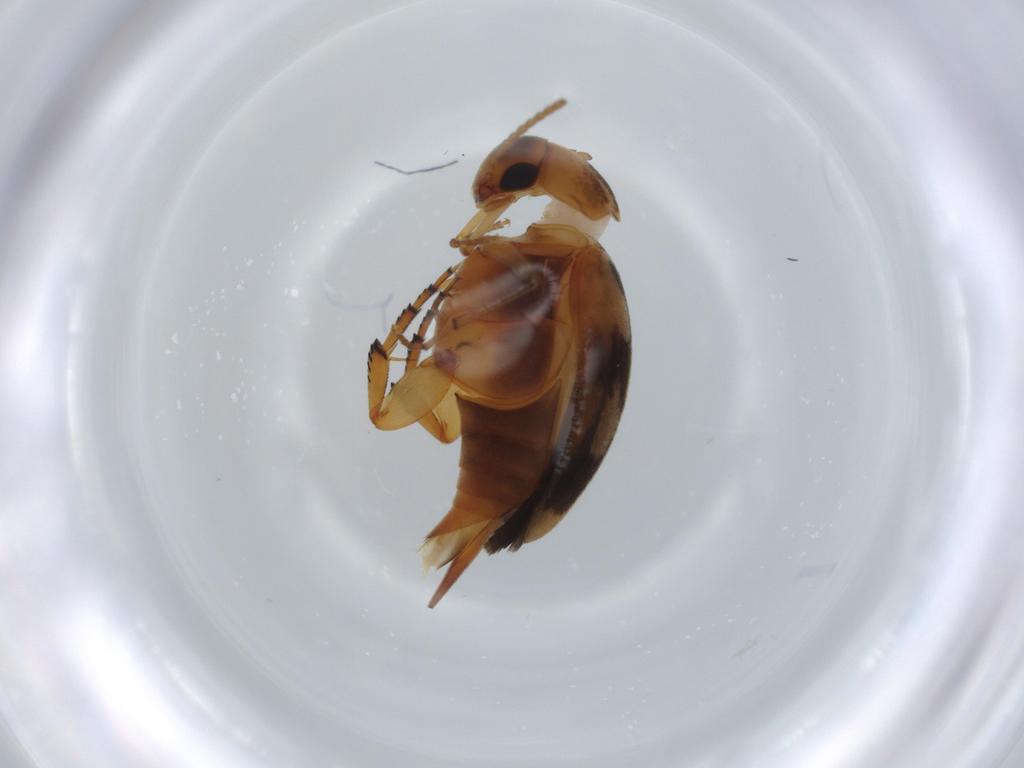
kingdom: Animalia
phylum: Arthropoda
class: Insecta
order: Coleoptera
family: Mordellidae
